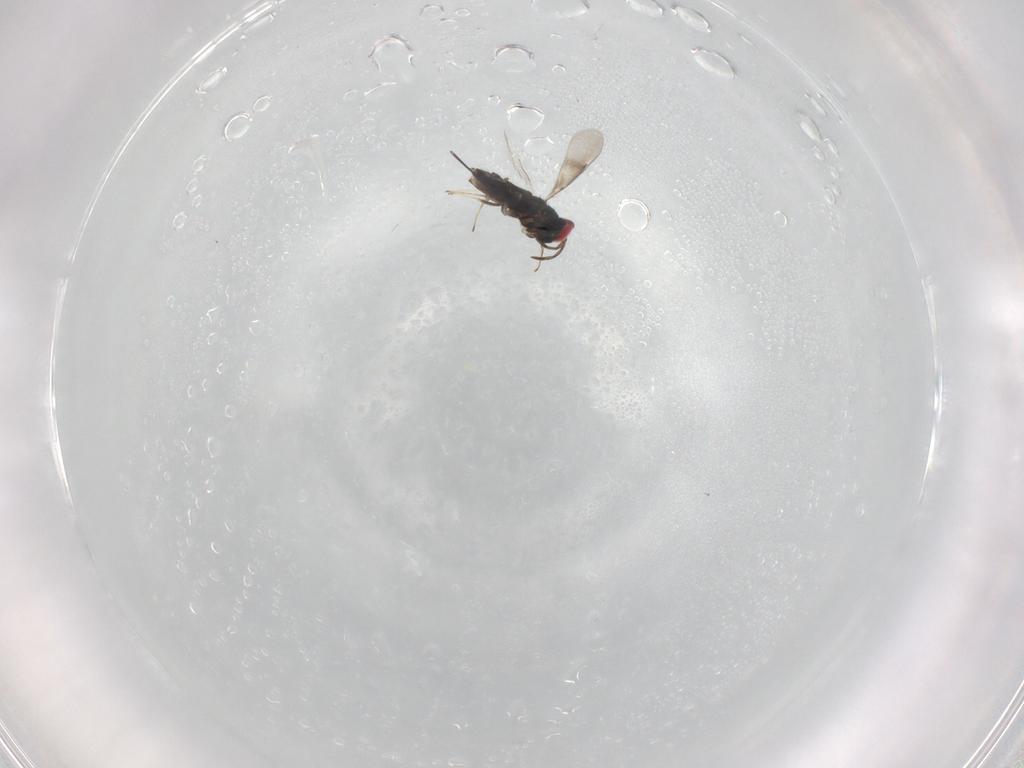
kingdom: Animalia
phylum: Arthropoda
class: Insecta
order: Hymenoptera
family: Azotidae
